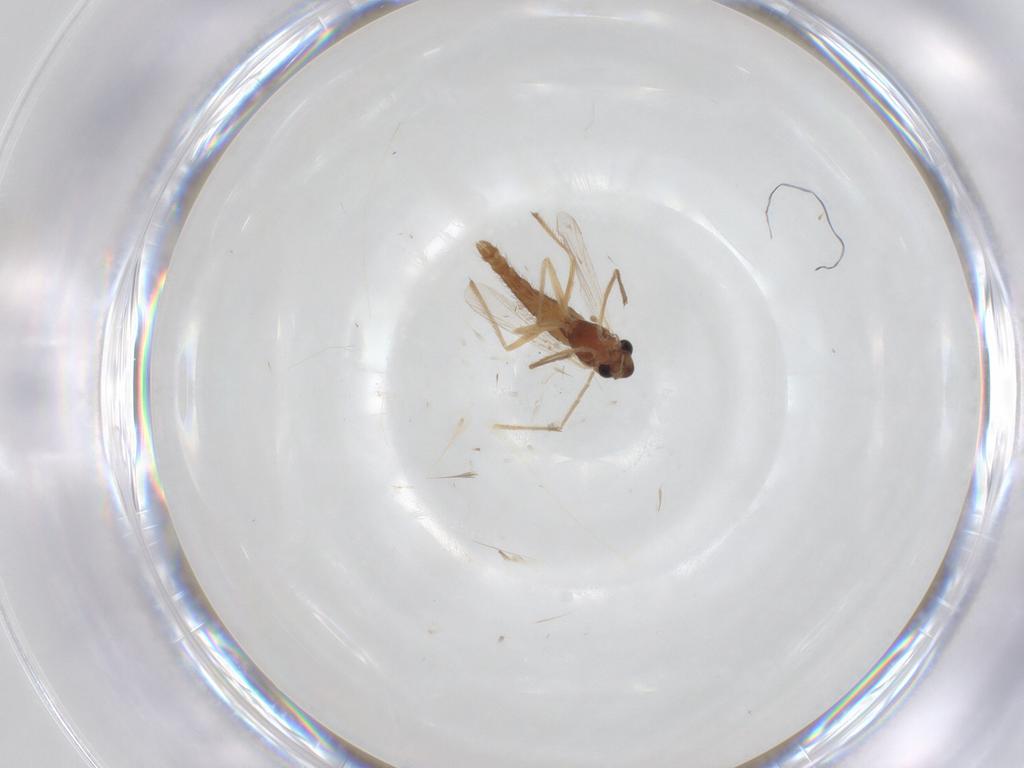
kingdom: Animalia
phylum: Arthropoda
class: Insecta
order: Diptera
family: Chironomidae
